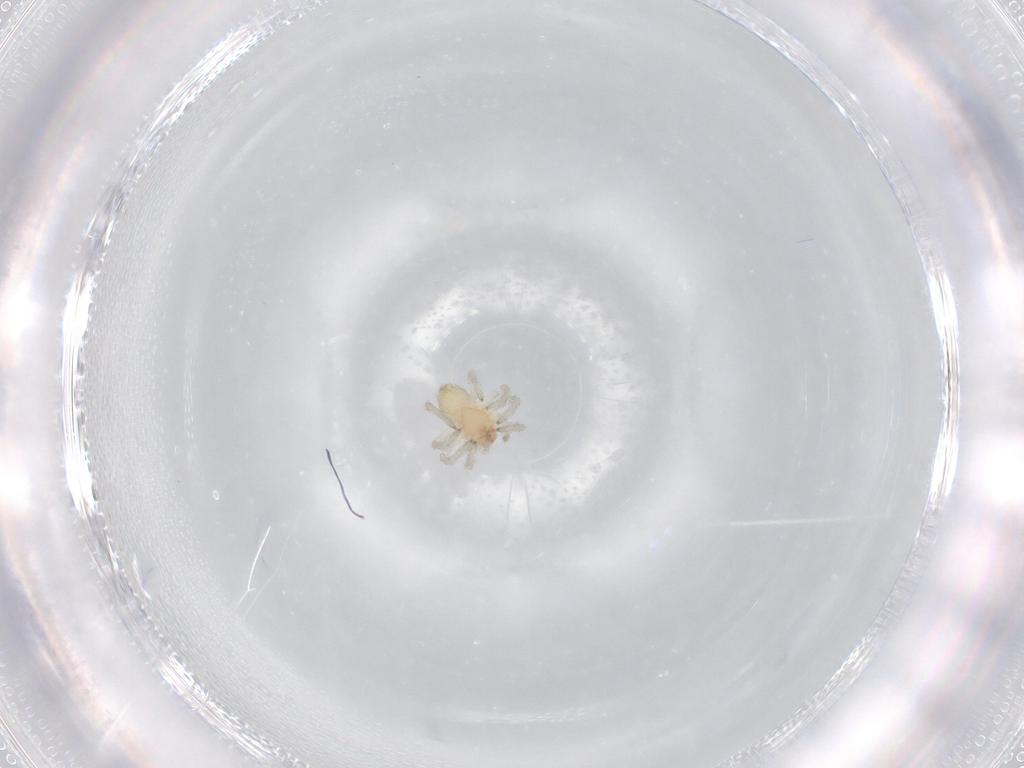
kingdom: Animalia
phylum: Arthropoda
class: Arachnida
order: Araneae
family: Dictynidae
